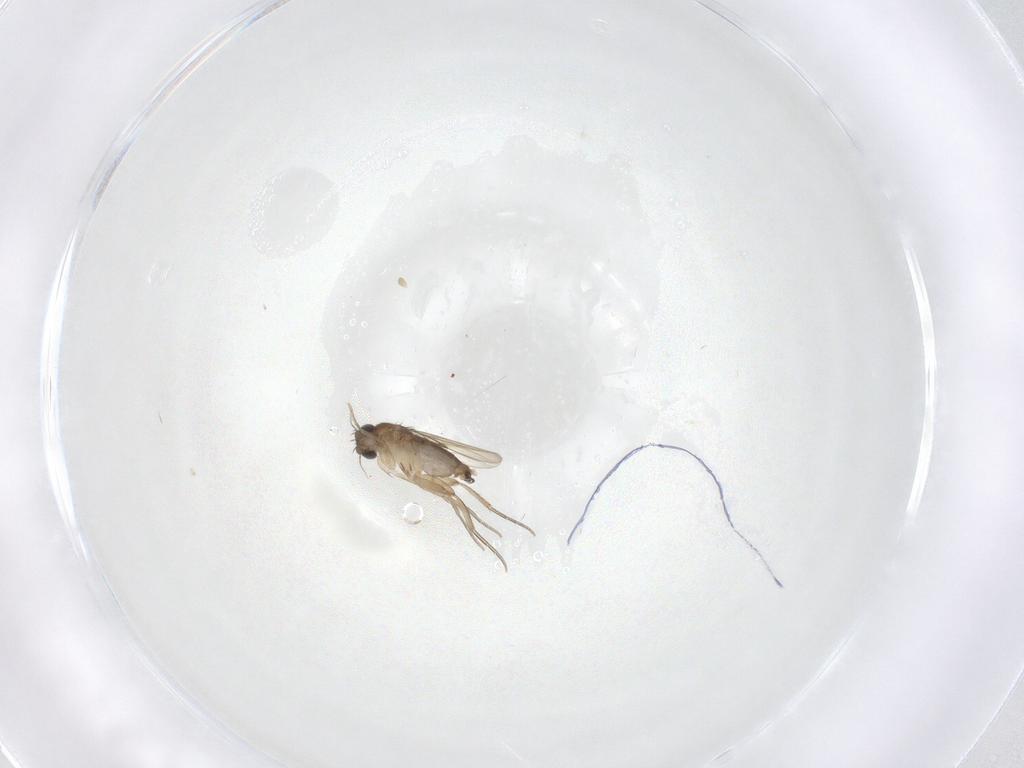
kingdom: Animalia
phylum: Arthropoda
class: Insecta
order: Diptera
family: Phoridae
